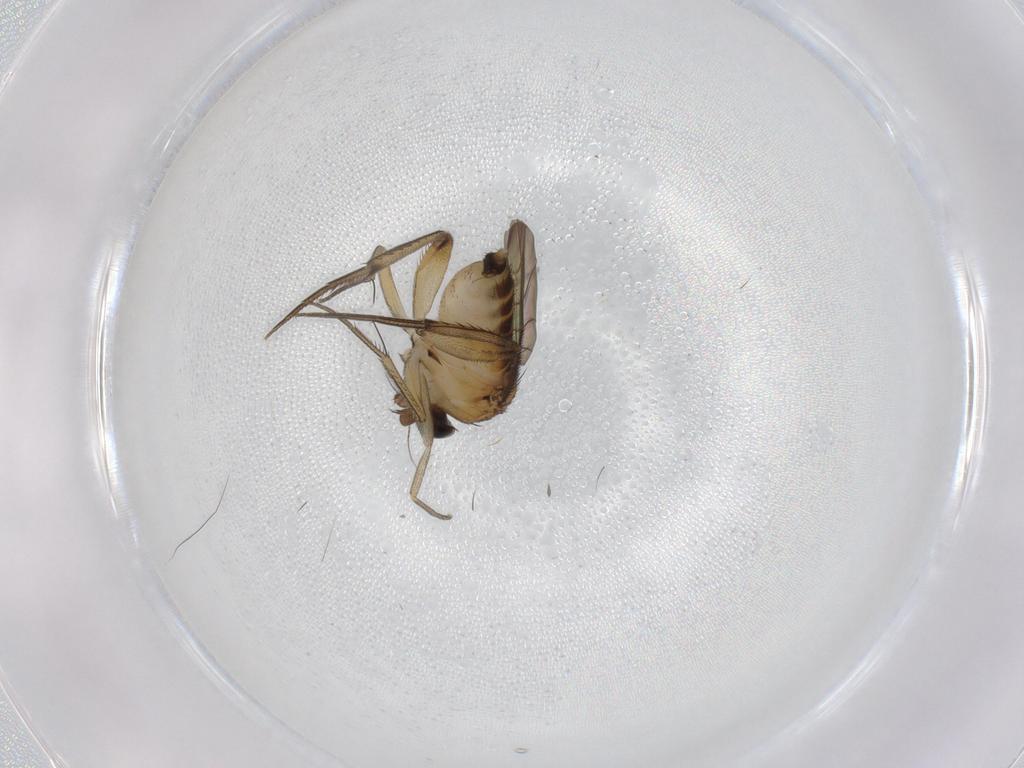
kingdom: Animalia
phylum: Arthropoda
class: Insecta
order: Diptera
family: Phoridae
